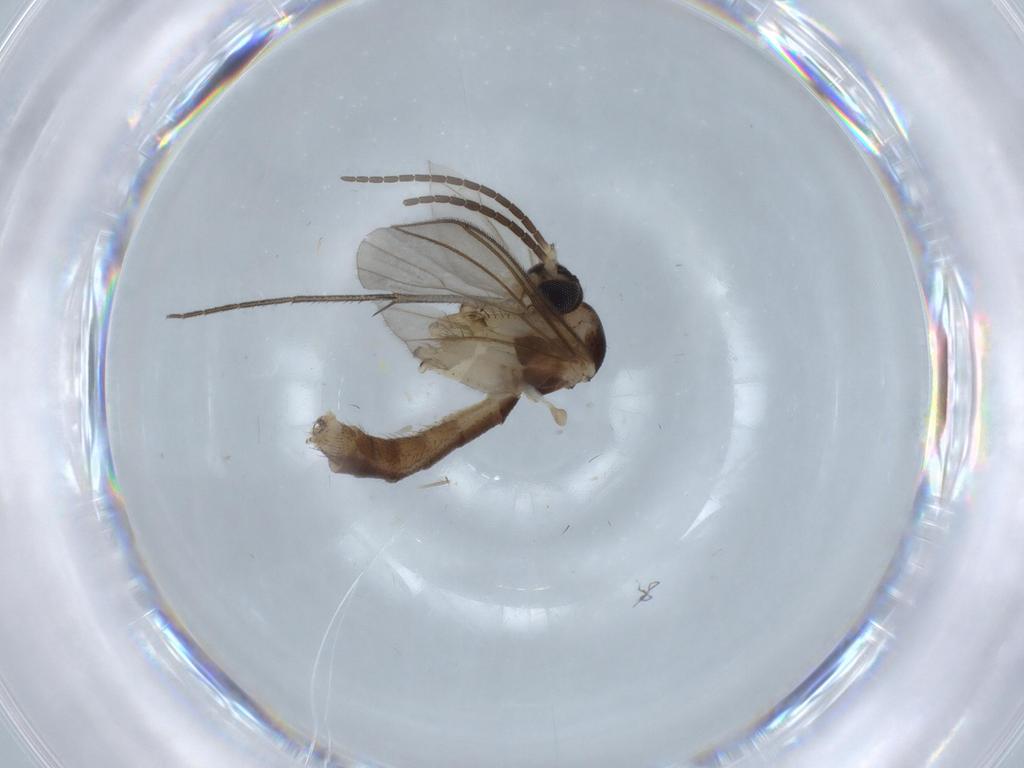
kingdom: Animalia
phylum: Arthropoda
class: Insecta
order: Diptera
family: Mycetophilidae
